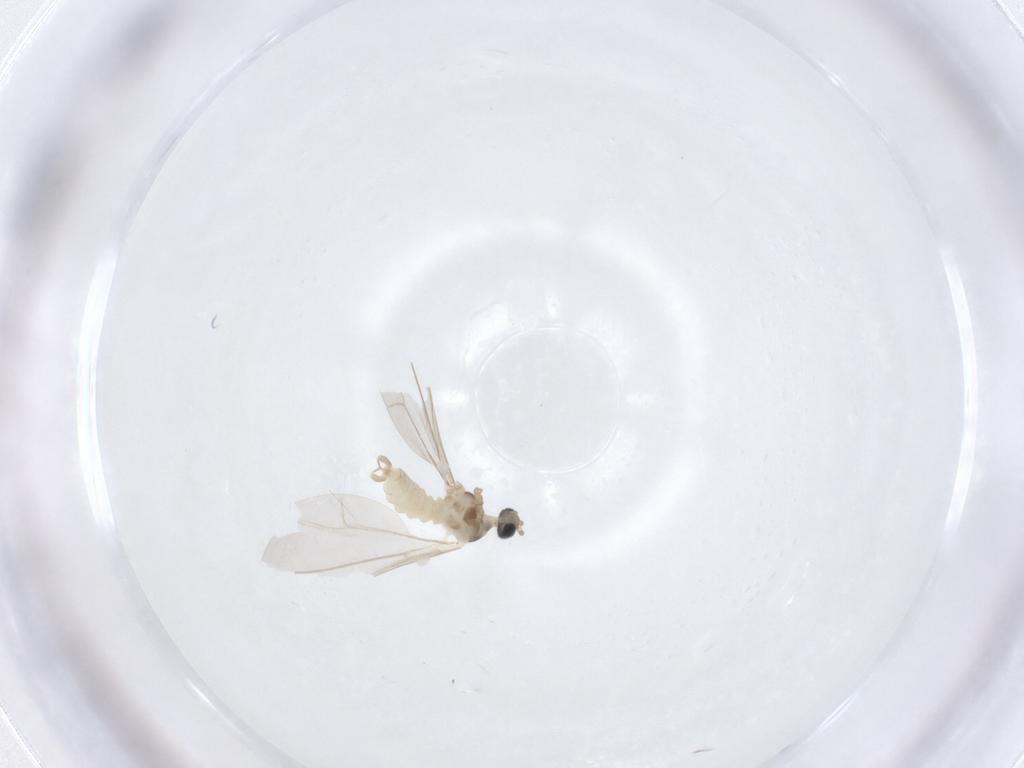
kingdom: Animalia
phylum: Arthropoda
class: Insecta
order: Diptera
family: Cecidomyiidae
